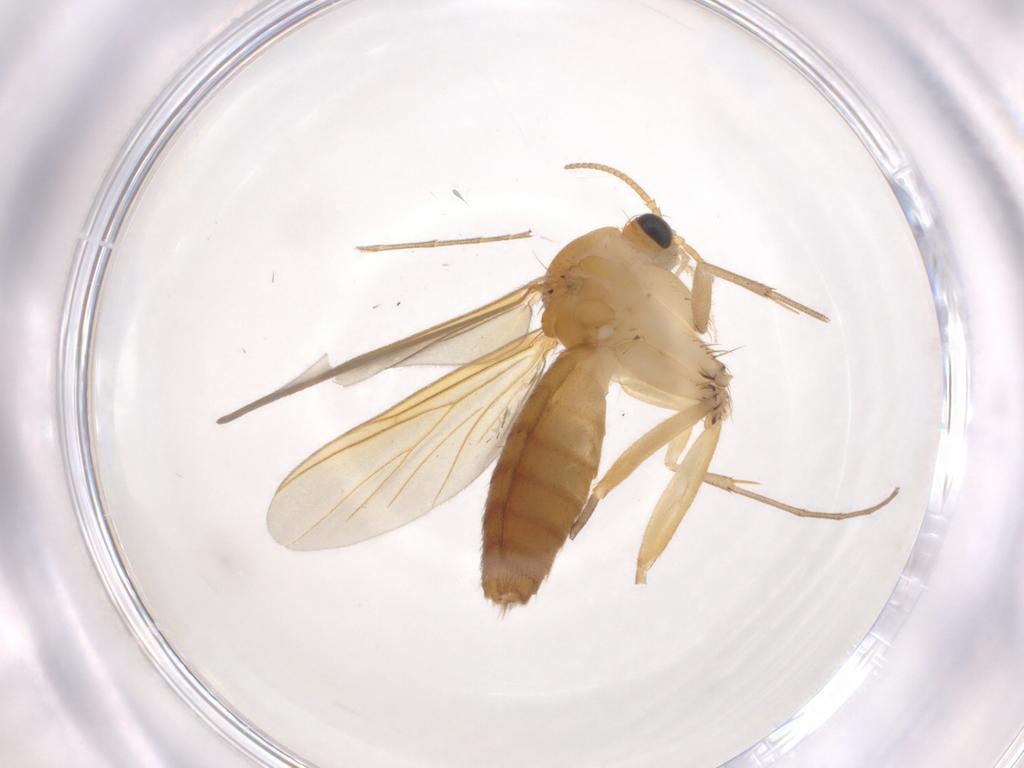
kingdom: Animalia
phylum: Arthropoda
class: Insecta
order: Diptera
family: Mycetophilidae
